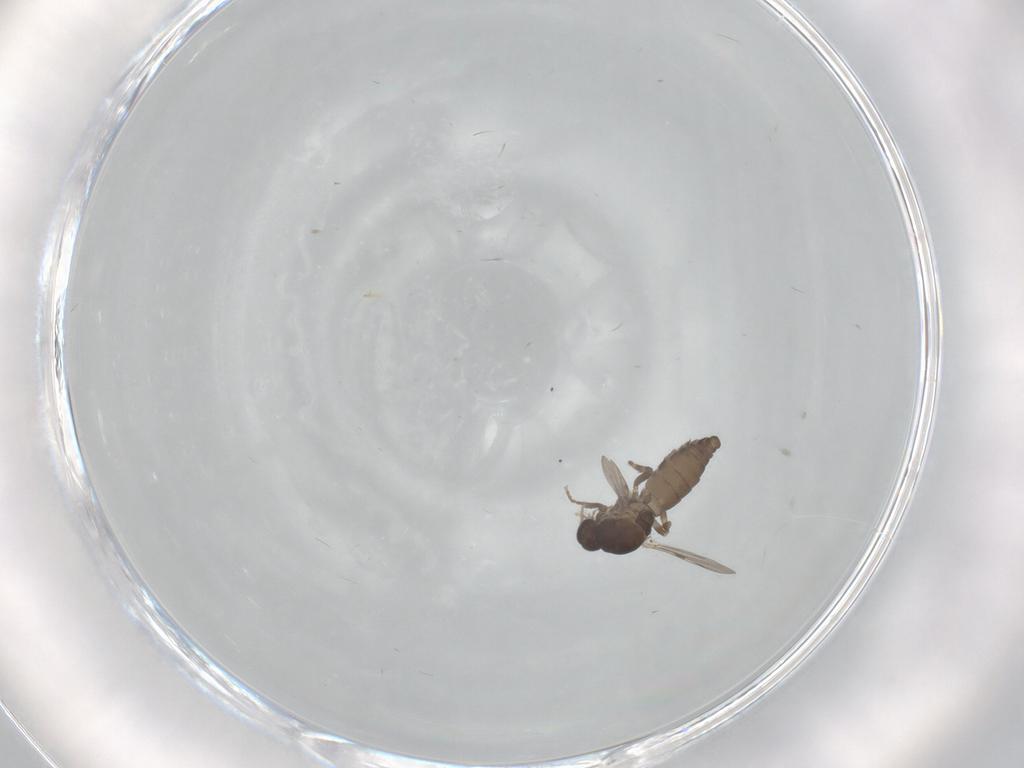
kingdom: Animalia
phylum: Arthropoda
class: Insecta
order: Diptera
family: Ceratopogonidae
